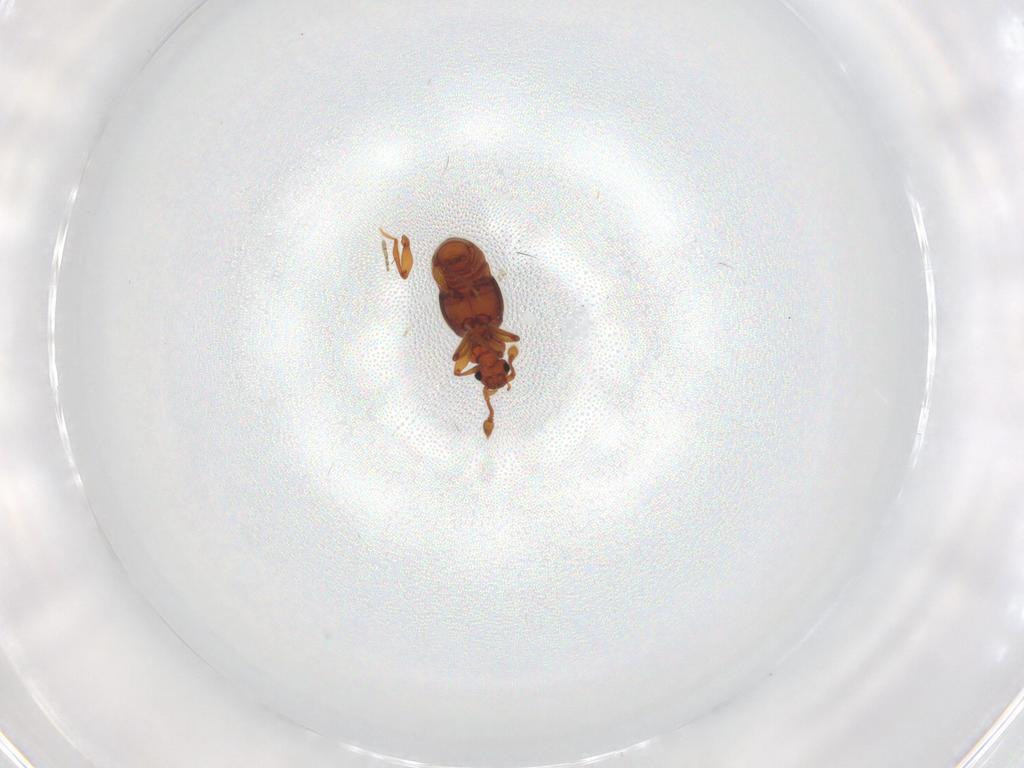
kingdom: Animalia
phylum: Arthropoda
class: Insecta
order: Coleoptera
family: Staphylinidae
